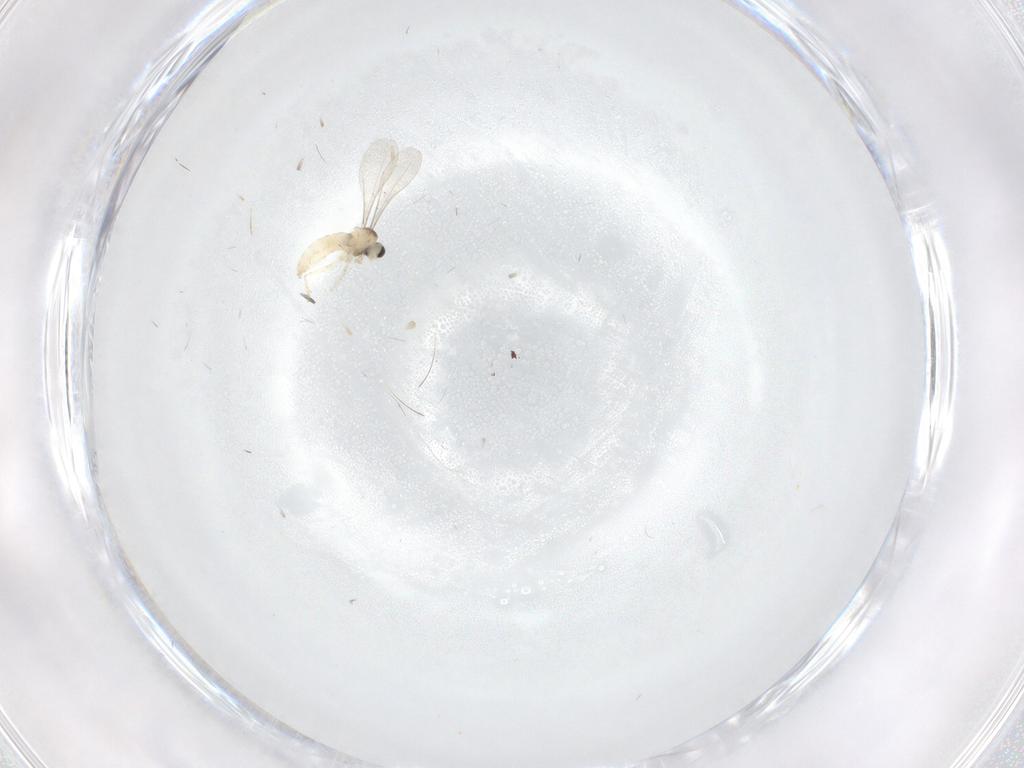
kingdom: Animalia
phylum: Arthropoda
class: Insecta
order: Diptera
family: Cecidomyiidae
